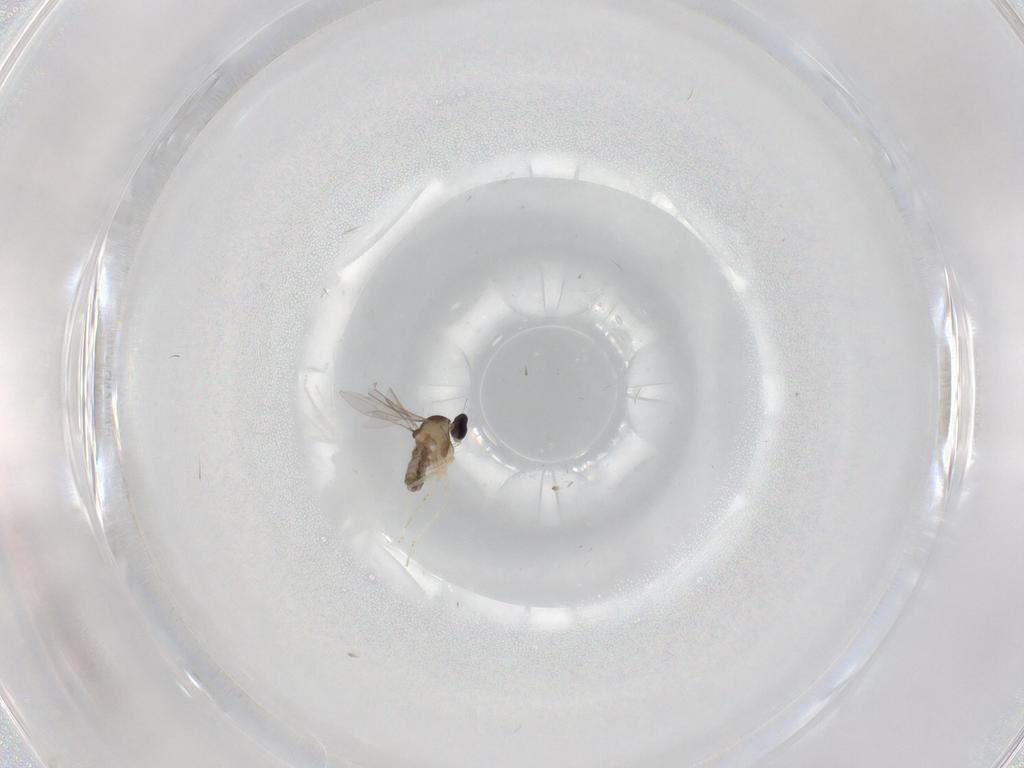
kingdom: Animalia
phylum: Arthropoda
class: Insecta
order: Diptera
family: Cecidomyiidae
